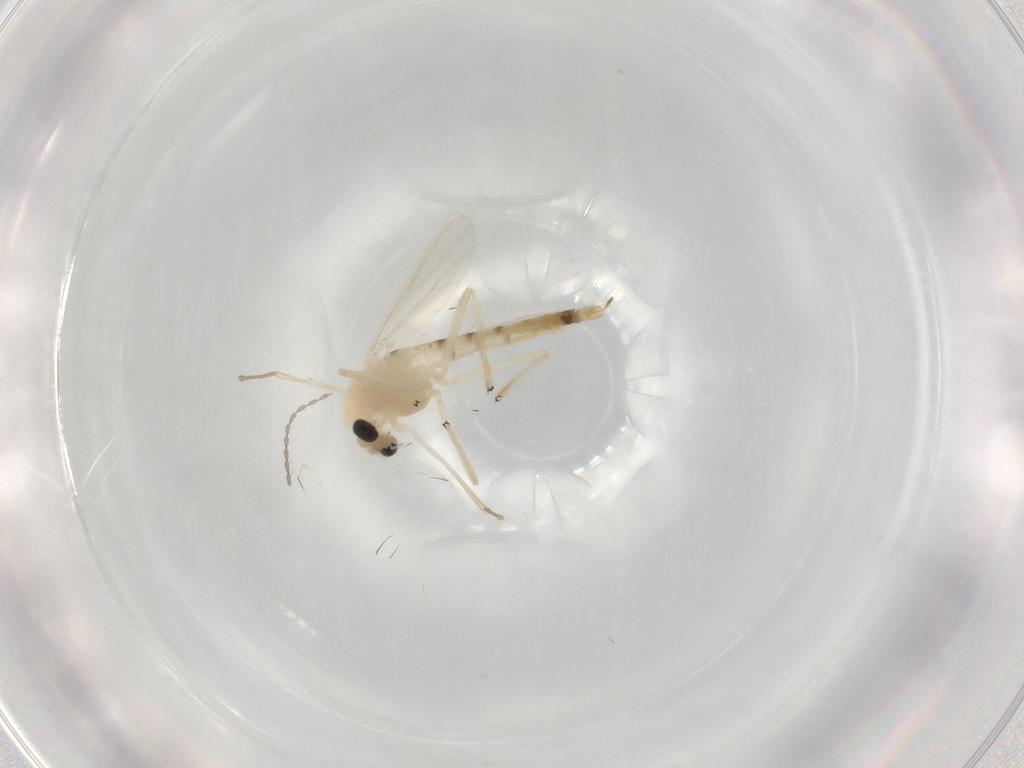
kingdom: Animalia
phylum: Arthropoda
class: Insecta
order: Diptera
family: Chironomidae
